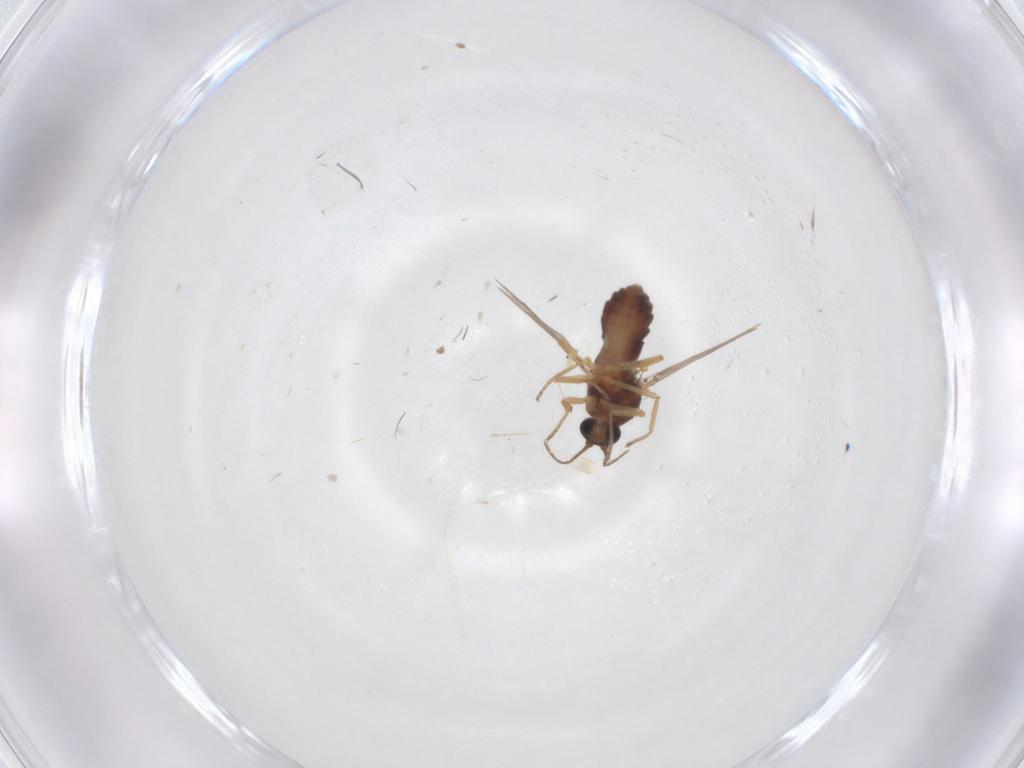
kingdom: Animalia
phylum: Arthropoda
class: Insecta
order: Diptera
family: Ceratopogonidae
